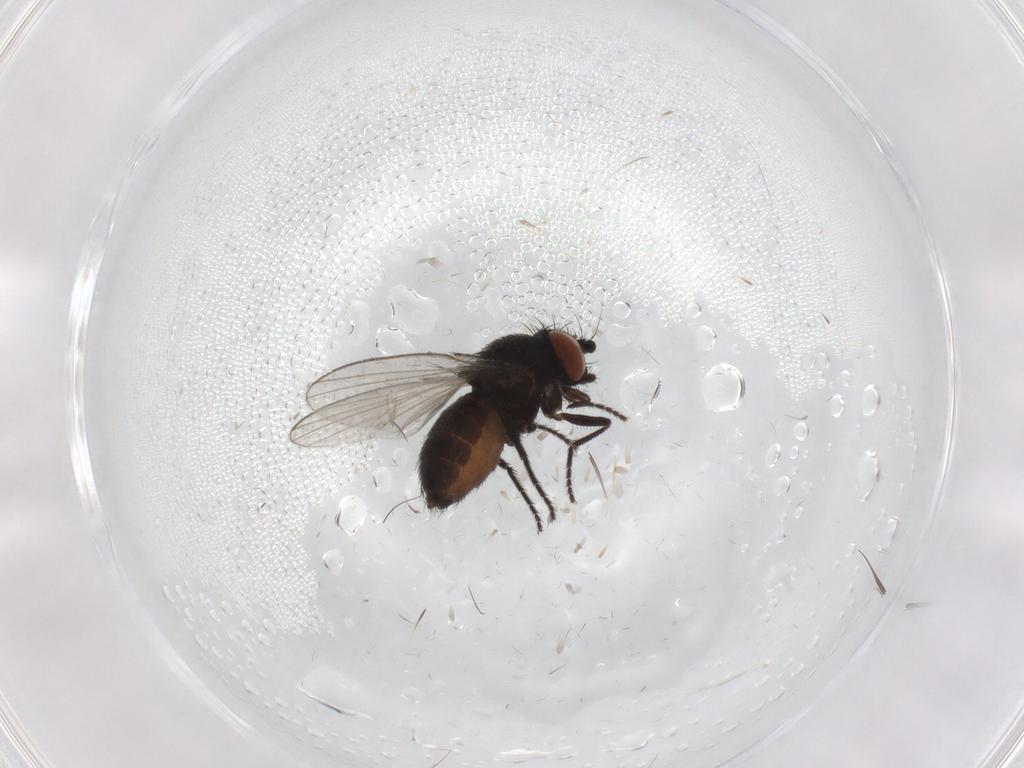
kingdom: Animalia
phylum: Arthropoda
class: Insecta
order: Diptera
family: Milichiidae
